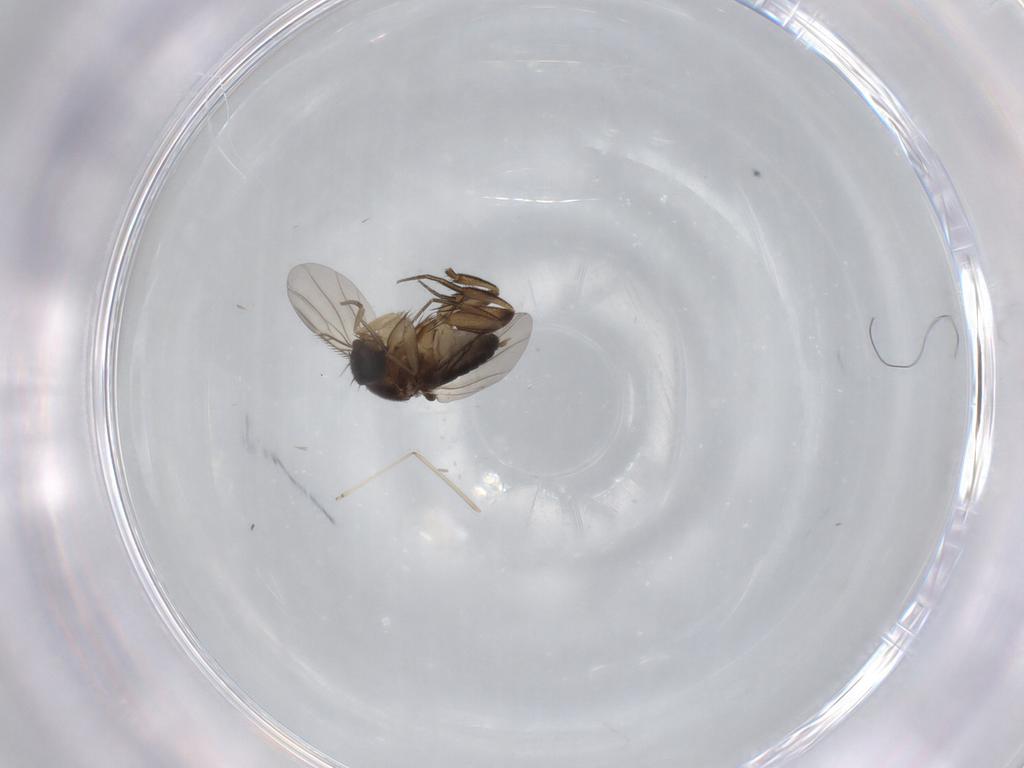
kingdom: Animalia
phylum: Arthropoda
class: Insecta
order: Diptera
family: Phoridae
